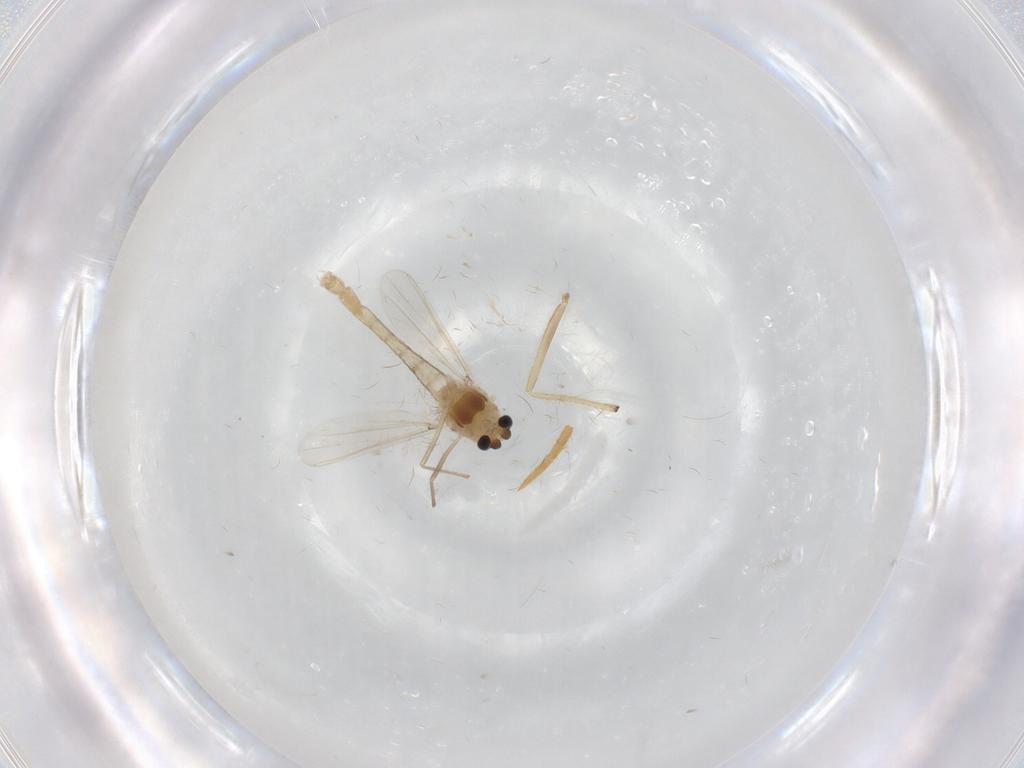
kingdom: Animalia
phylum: Arthropoda
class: Insecta
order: Diptera
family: Chironomidae
